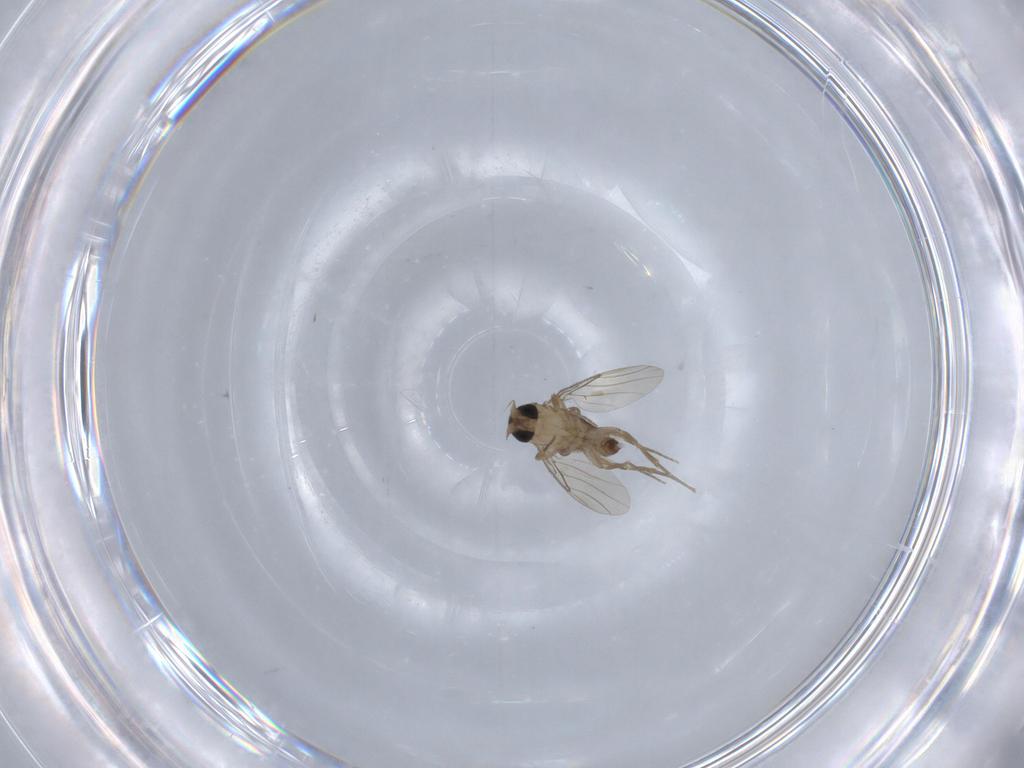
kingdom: Animalia
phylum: Arthropoda
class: Insecta
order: Diptera
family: Phoridae
